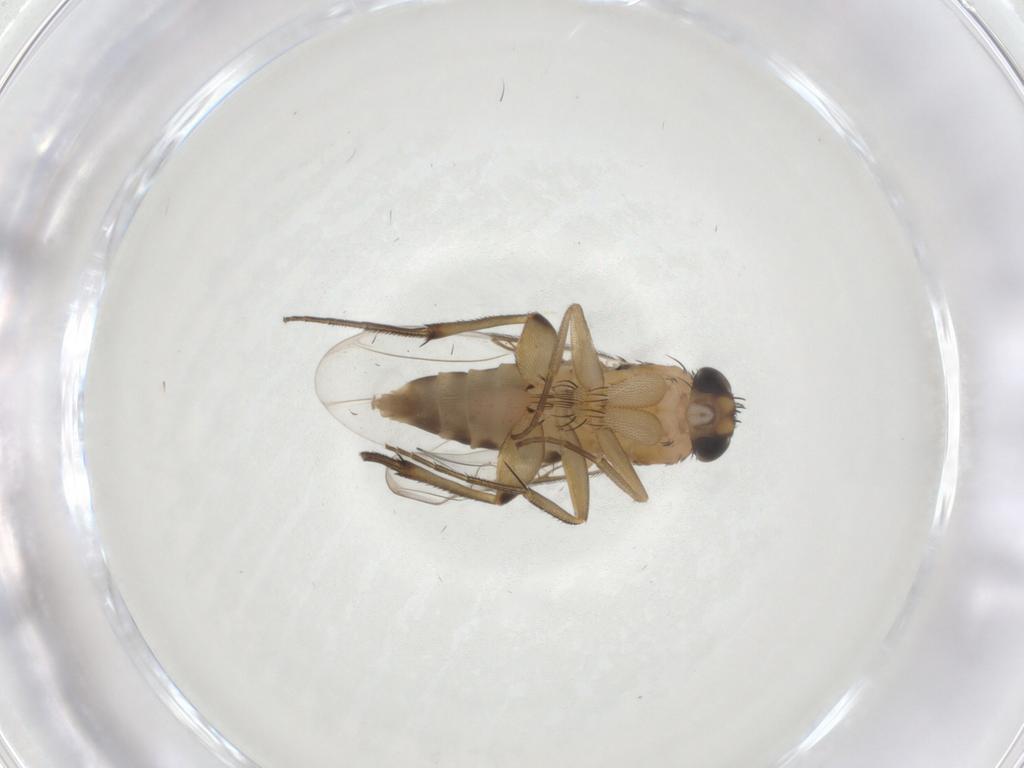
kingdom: Animalia
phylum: Arthropoda
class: Insecta
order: Diptera
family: Phoridae
